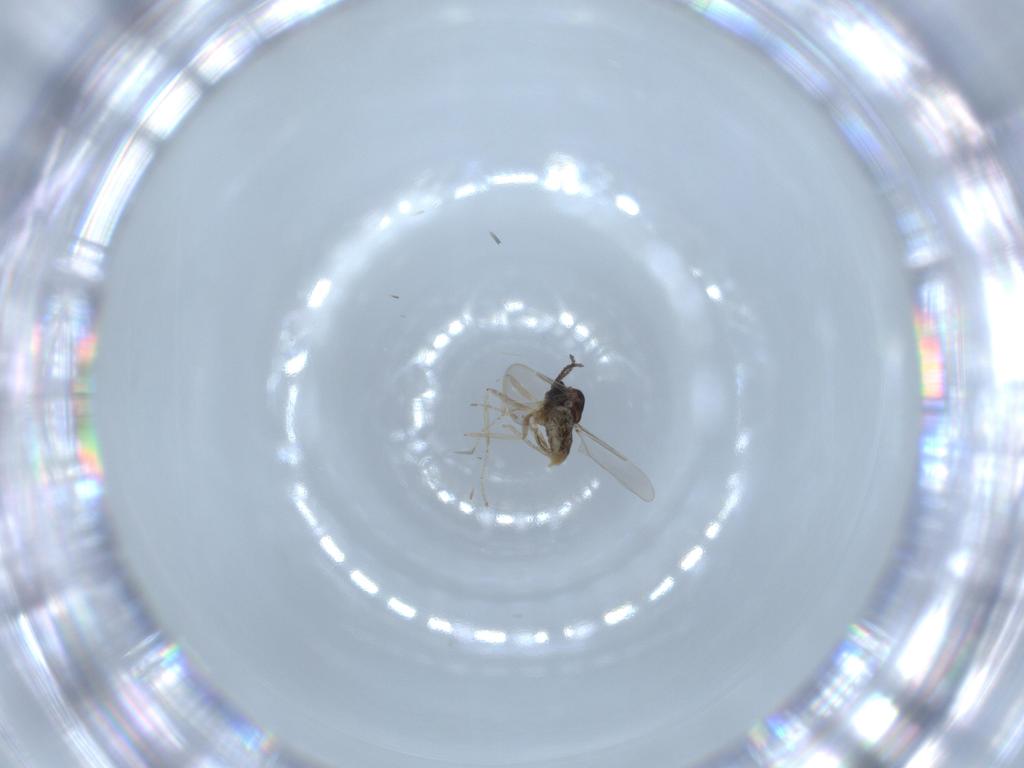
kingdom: Animalia
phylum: Arthropoda
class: Insecta
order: Diptera
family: Cecidomyiidae
